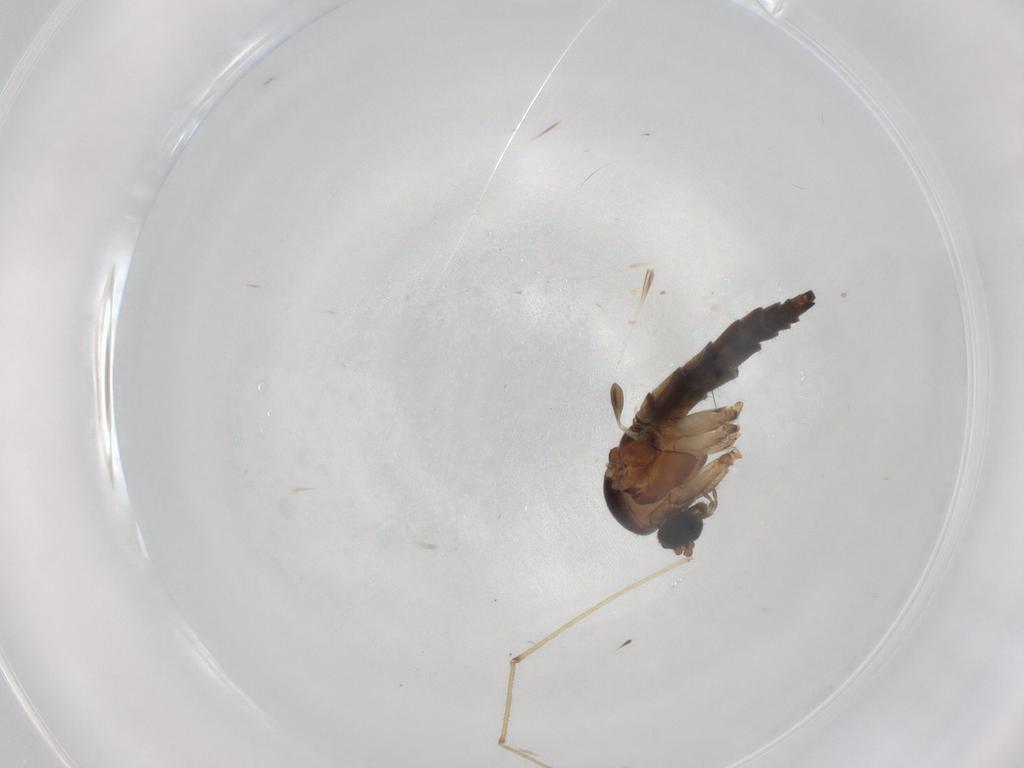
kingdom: Animalia
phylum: Arthropoda
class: Insecta
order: Diptera
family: Sciaridae
